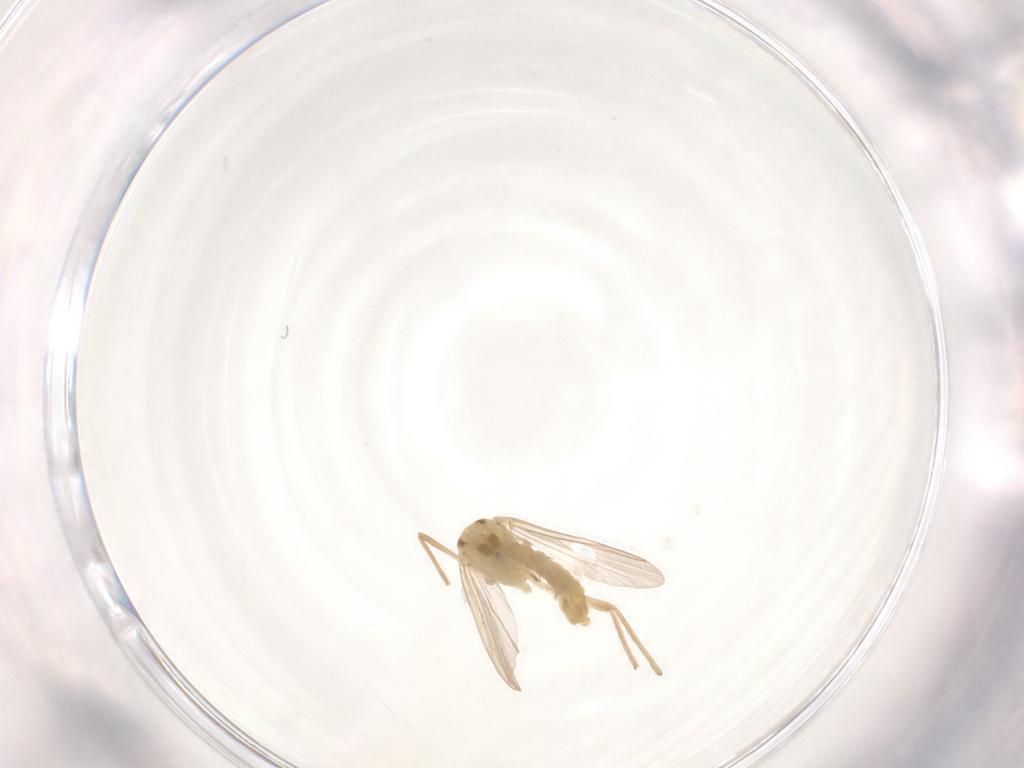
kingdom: Animalia
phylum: Arthropoda
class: Insecta
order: Diptera
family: Chironomidae
